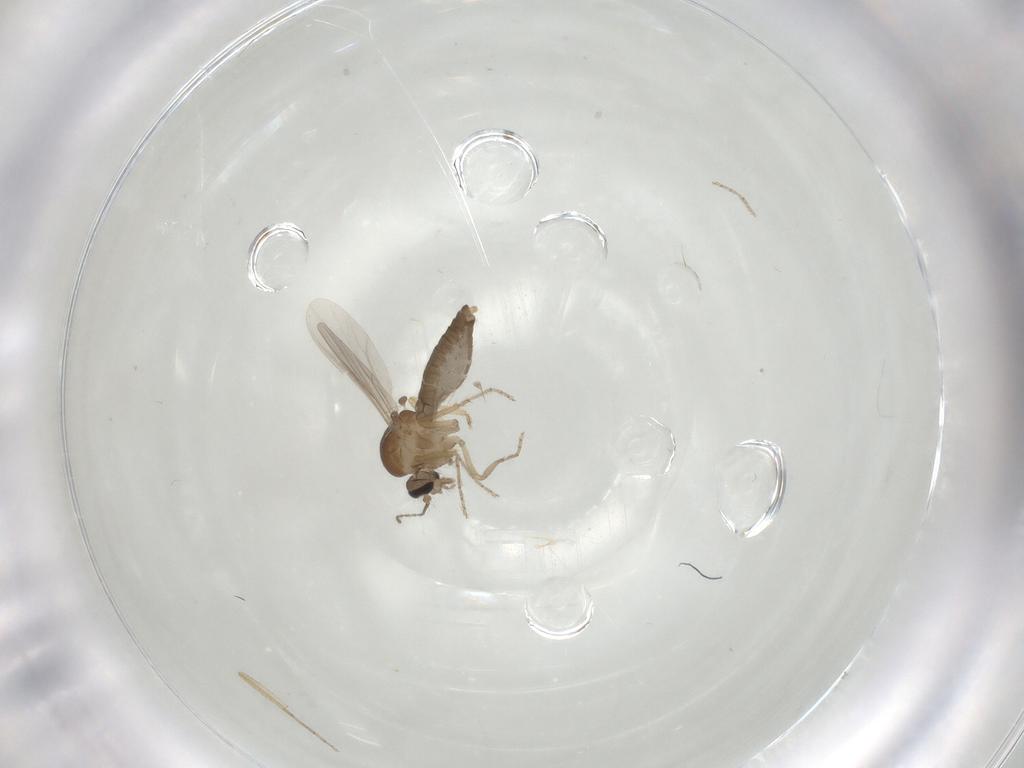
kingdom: Animalia
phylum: Arthropoda
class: Insecta
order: Diptera
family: Ceratopogonidae
